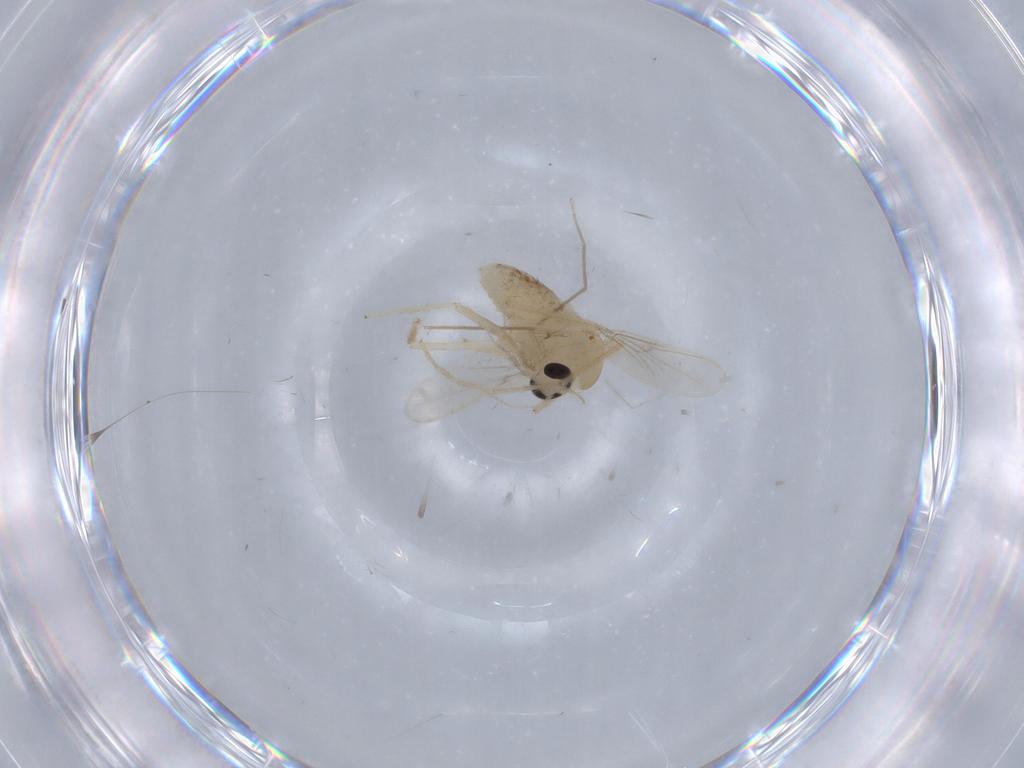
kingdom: Animalia
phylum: Arthropoda
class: Insecta
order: Diptera
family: Chironomidae
